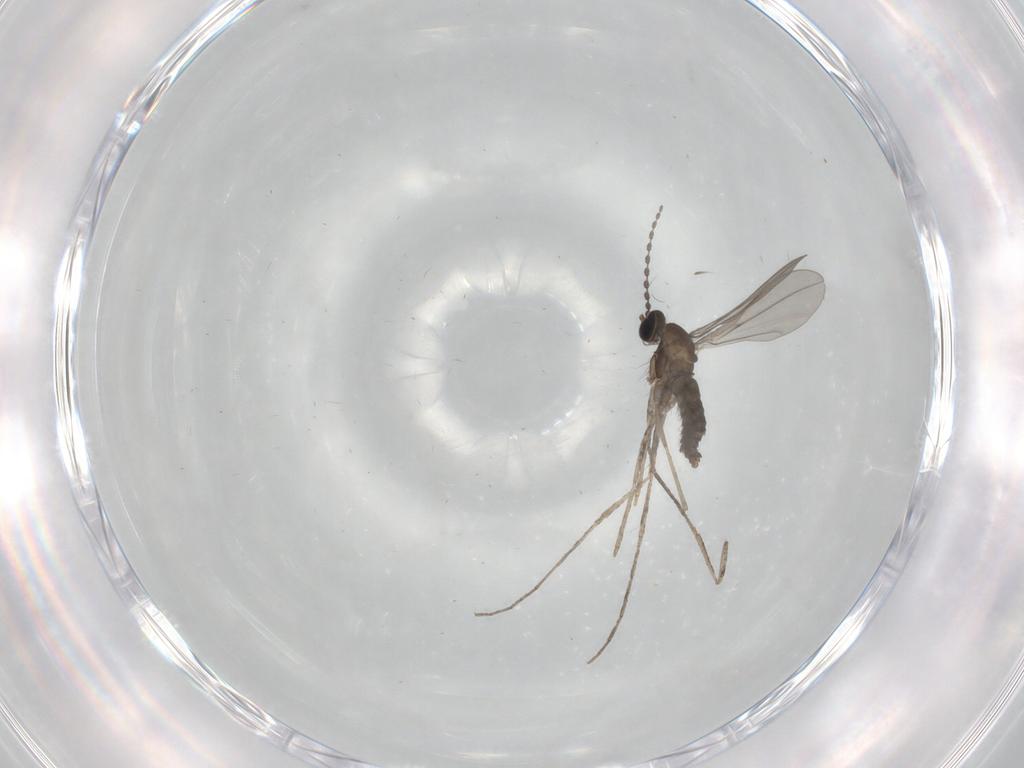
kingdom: Animalia
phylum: Arthropoda
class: Insecta
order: Diptera
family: Cecidomyiidae
